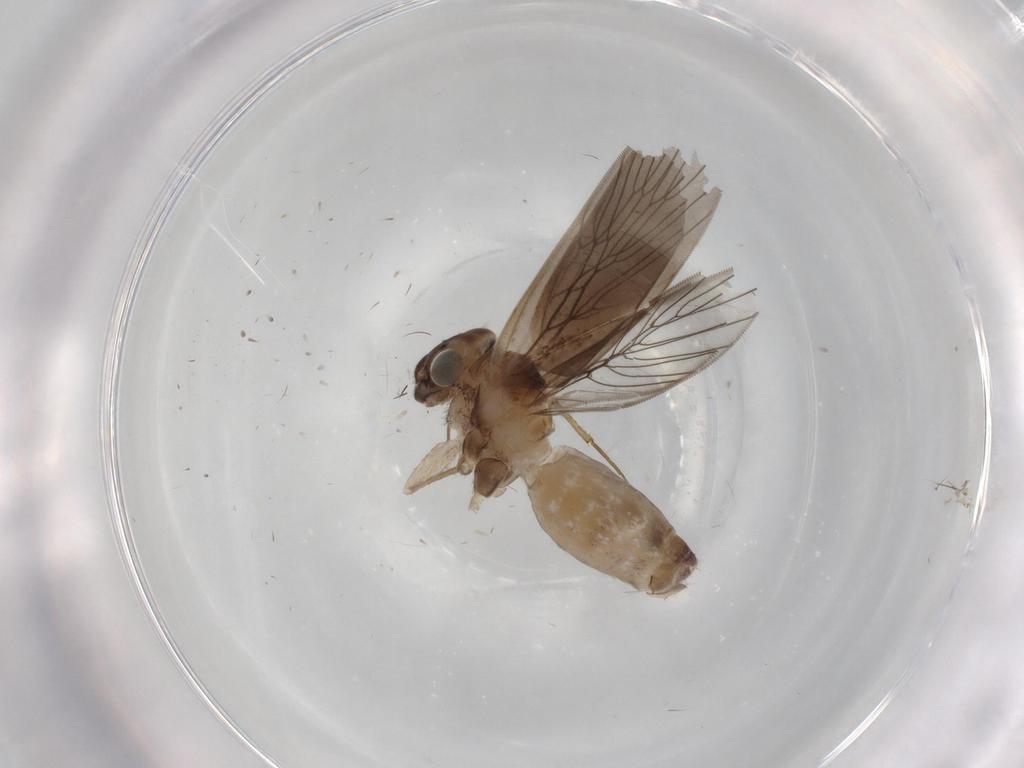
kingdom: Animalia
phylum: Arthropoda
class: Insecta
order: Psocodea
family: Lepidopsocidae
